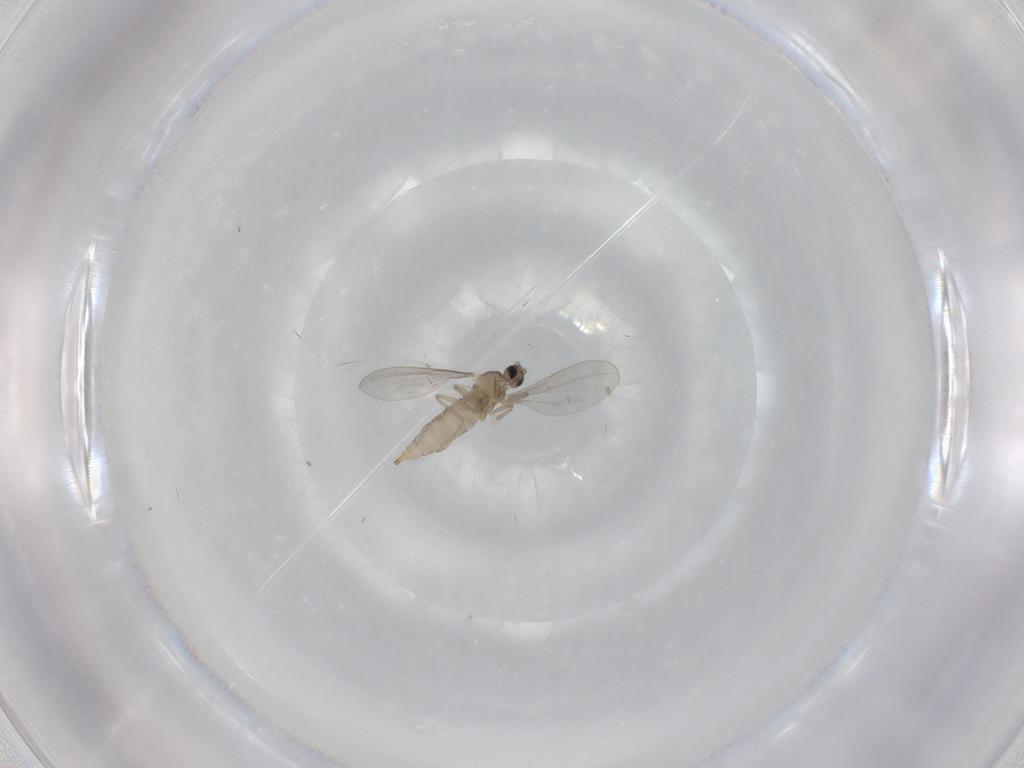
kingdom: Animalia
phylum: Arthropoda
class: Insecta
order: Diptera
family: Cecidomyiidae
